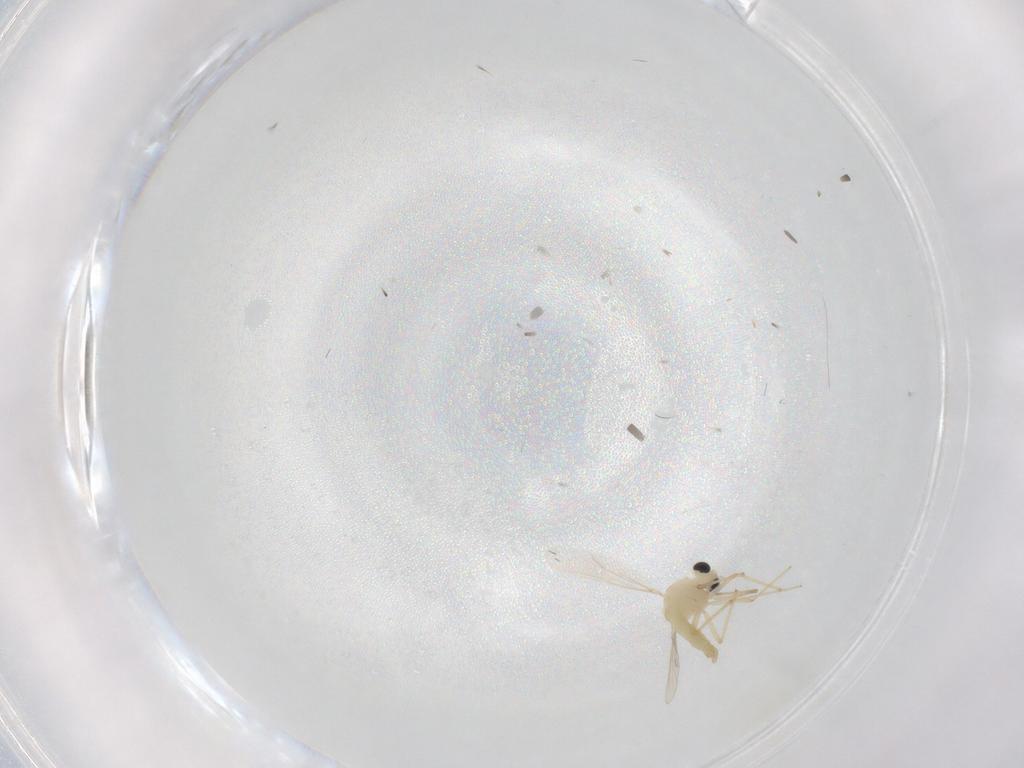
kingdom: Animalia
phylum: Arthropoda
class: Insecta
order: Diptera
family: Chironomidae
